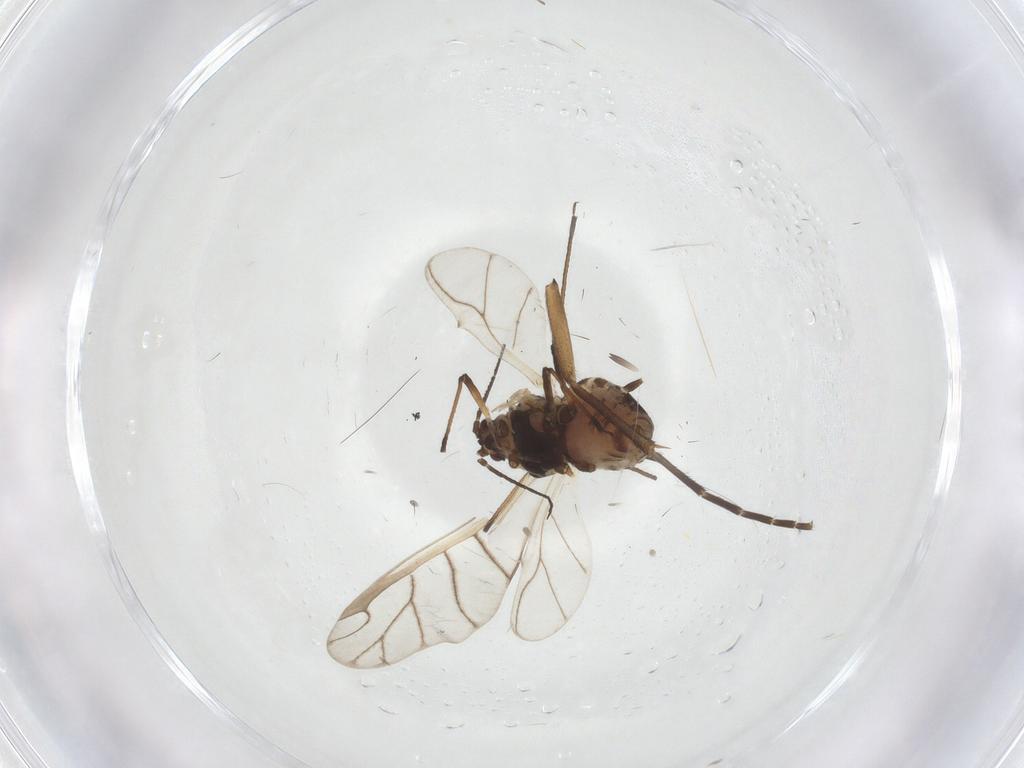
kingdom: Animalia
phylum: Arthropoda
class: Insecta
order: Hemiptera
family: Aphididae
